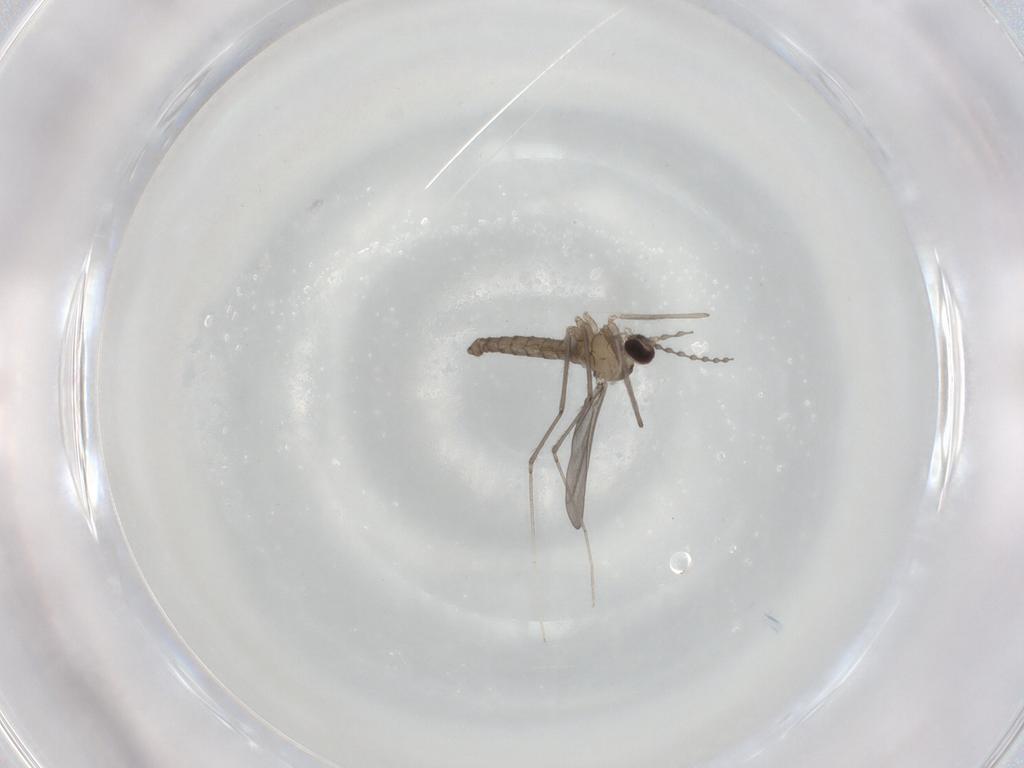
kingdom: Animalia
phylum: Arthropoda
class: Insecta
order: Diptera
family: Cecidomyiidae
